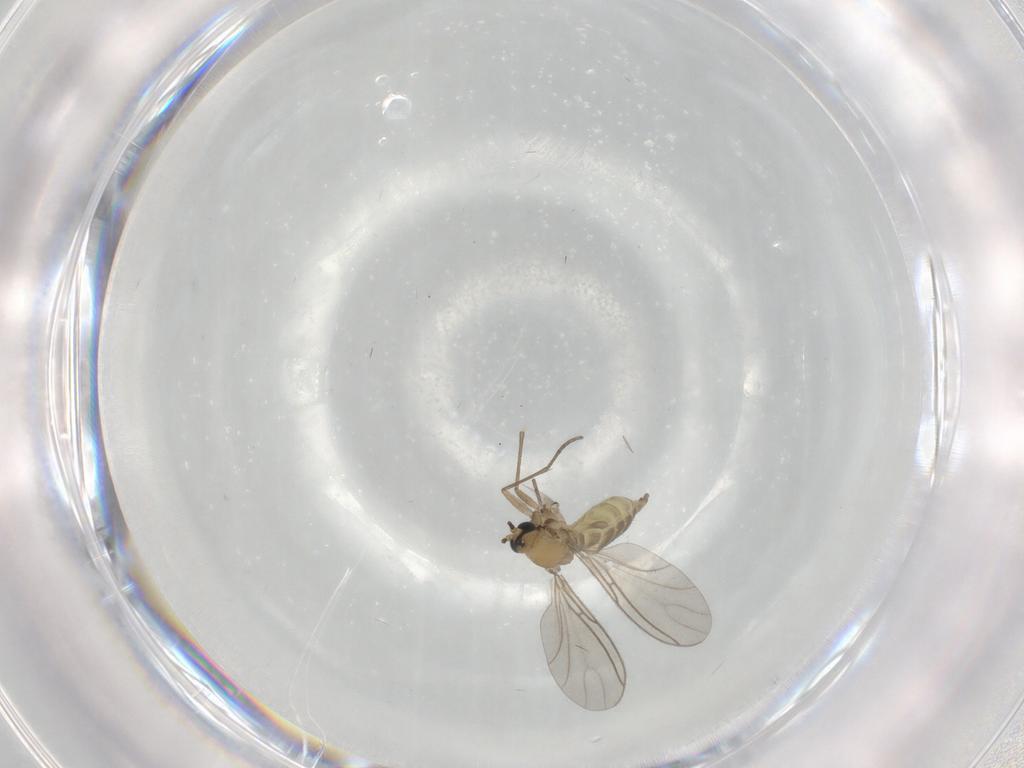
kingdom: Animalia
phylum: Arthropoda
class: Insecta
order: Diptera
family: Sciaridae
